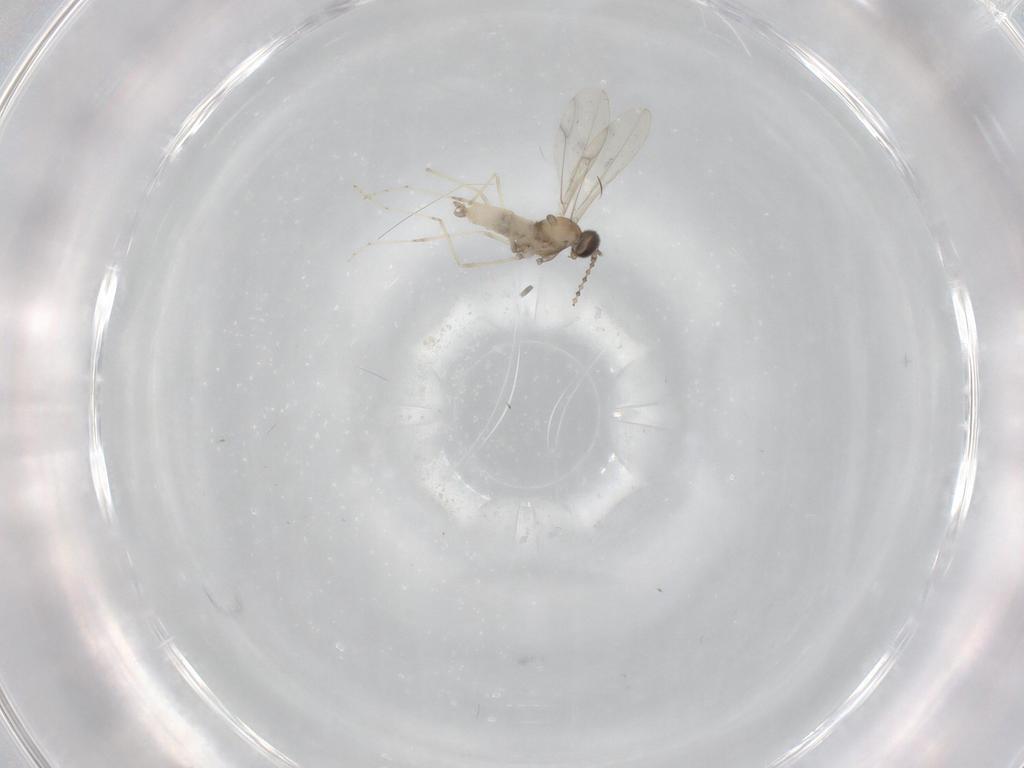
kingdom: Animalia
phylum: Arthropoda
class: Insecta
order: Diptera
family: Cecidomyiidae
